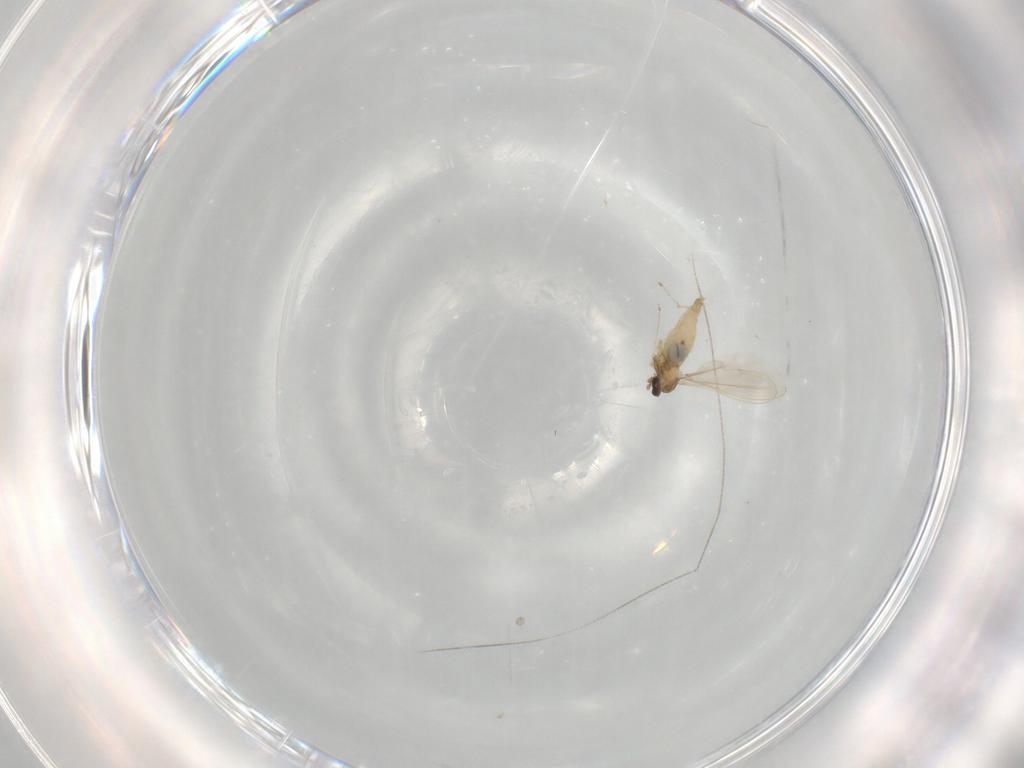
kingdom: Animalia
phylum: Arthropoda
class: Insecta
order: Diptera
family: Cecidomyiidae
